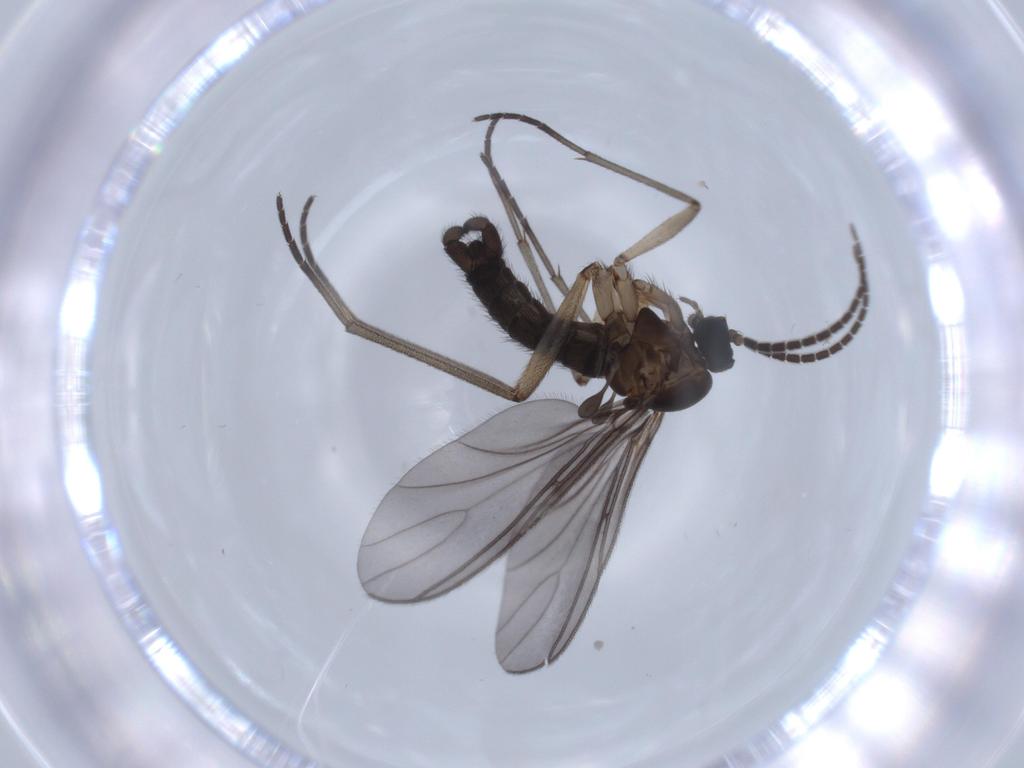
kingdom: Animalia
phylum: Arthropoda
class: Insecta
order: Diptera
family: Sciaridae
